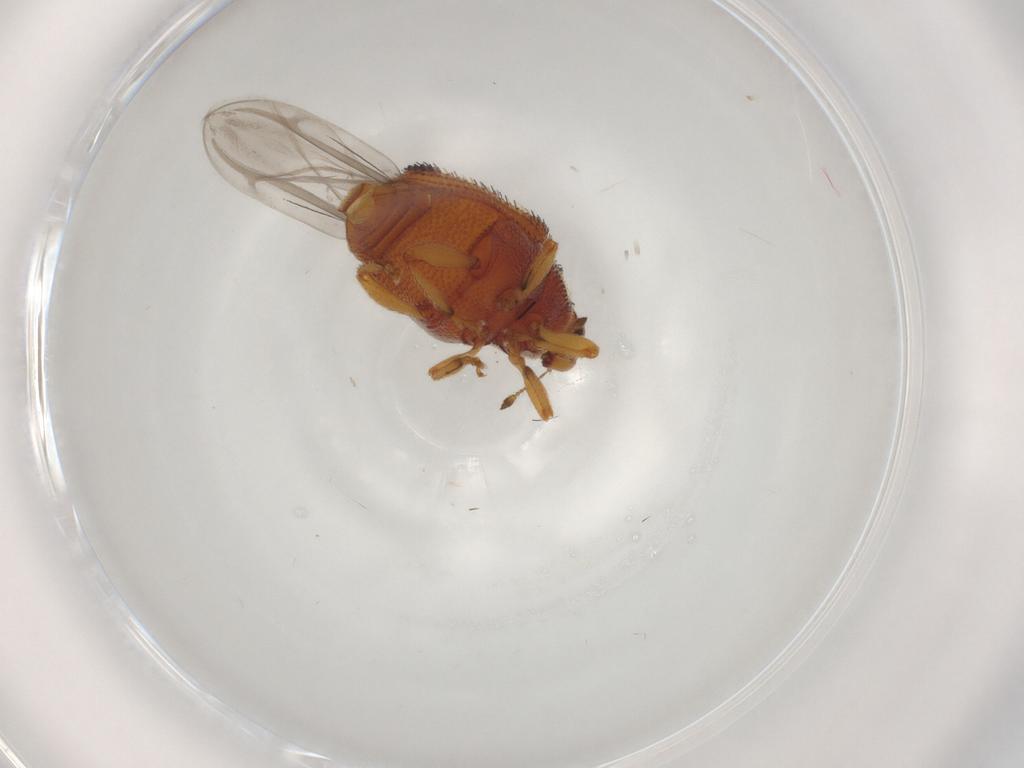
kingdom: Animalia
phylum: Arthropoda
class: Insecta
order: Coleoptera
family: Curculionidae
